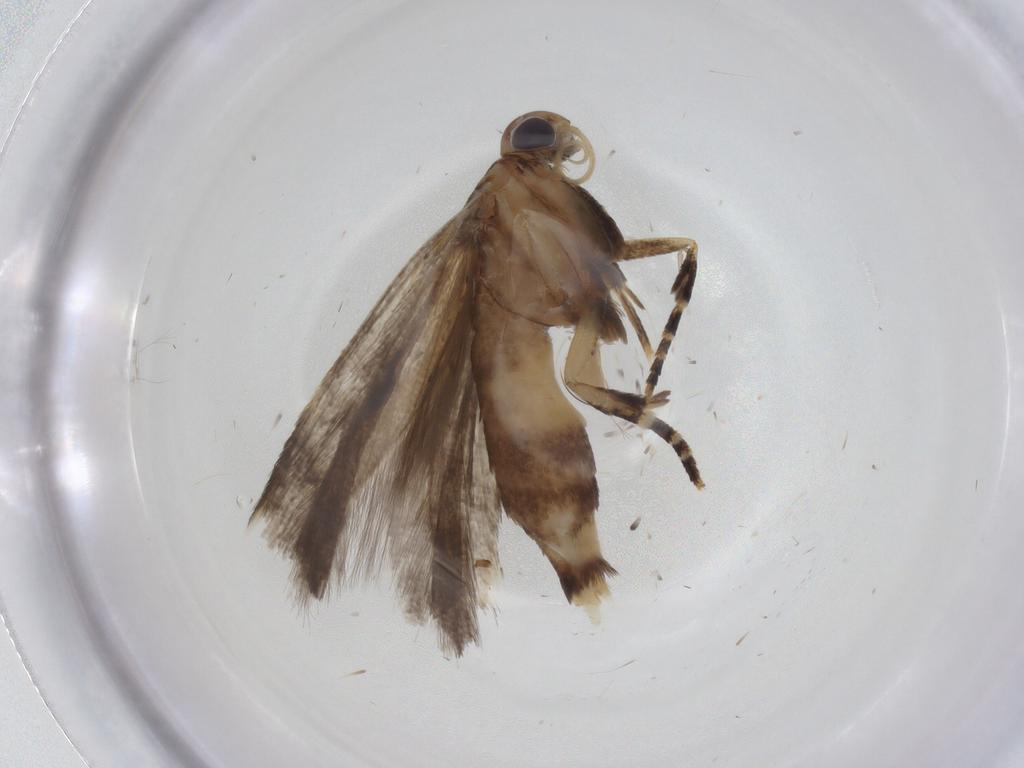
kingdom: Animalia
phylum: Arthropoda
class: Insecta
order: Lepidoptera
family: Gelechiidae
